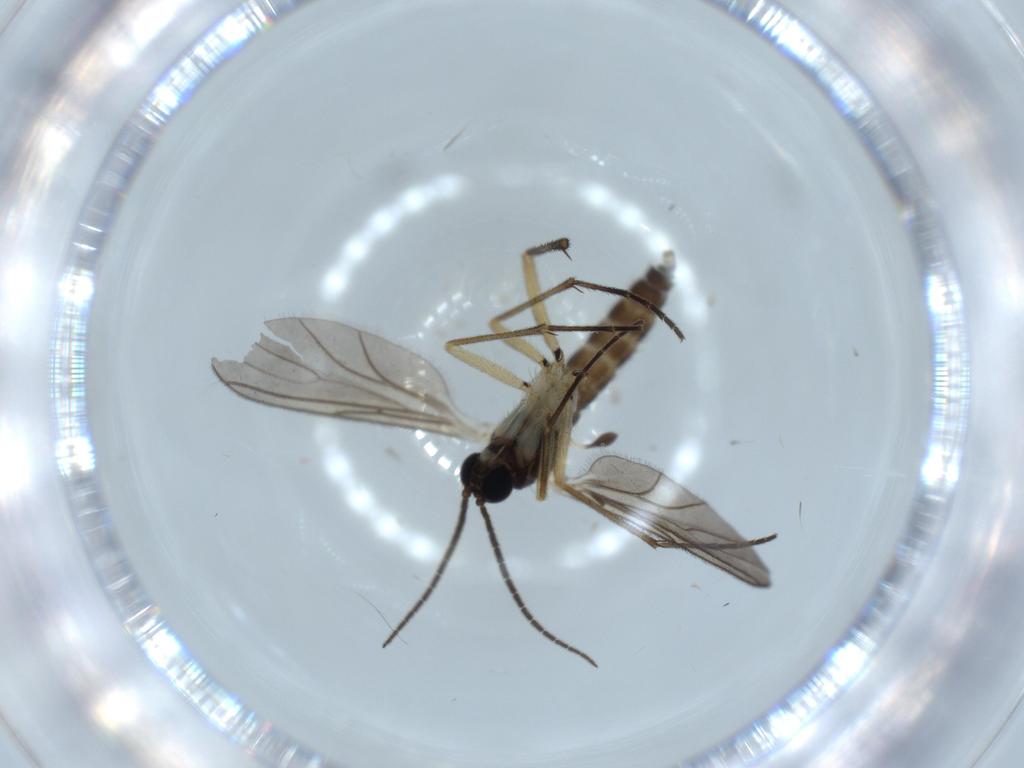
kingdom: Animalia
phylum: Arthropoda
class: Insecta
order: Diptera
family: Sciaridae
